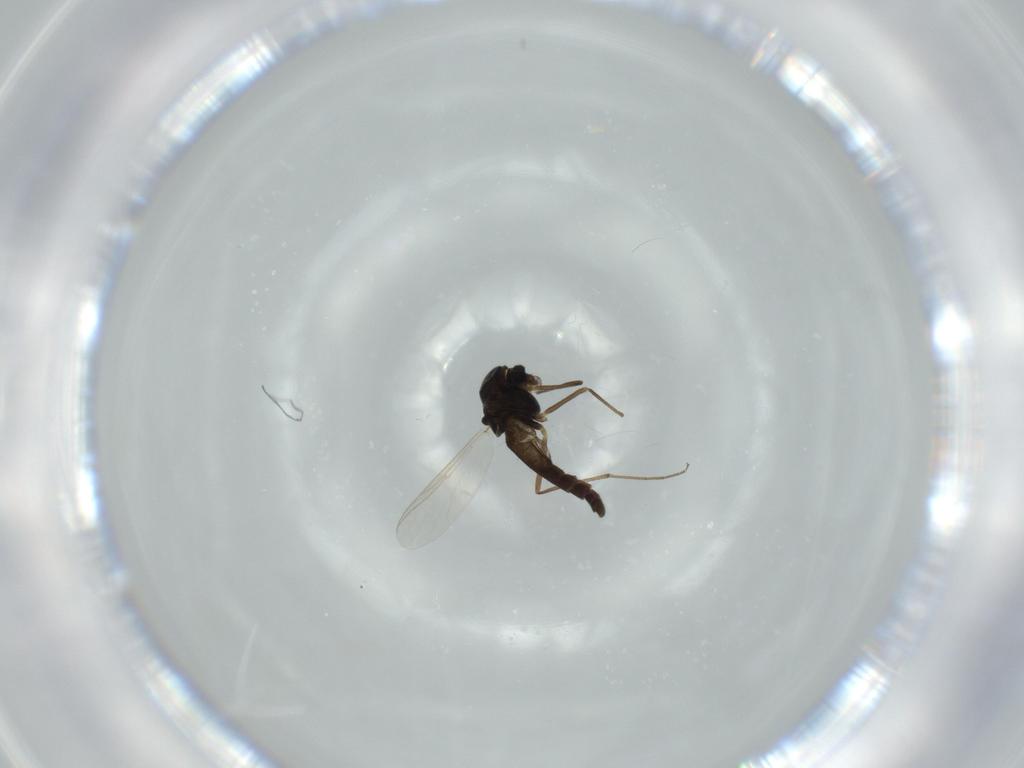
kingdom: Animalia
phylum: Arthropoda
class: Insecta
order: Diptera
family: Chironomidae
